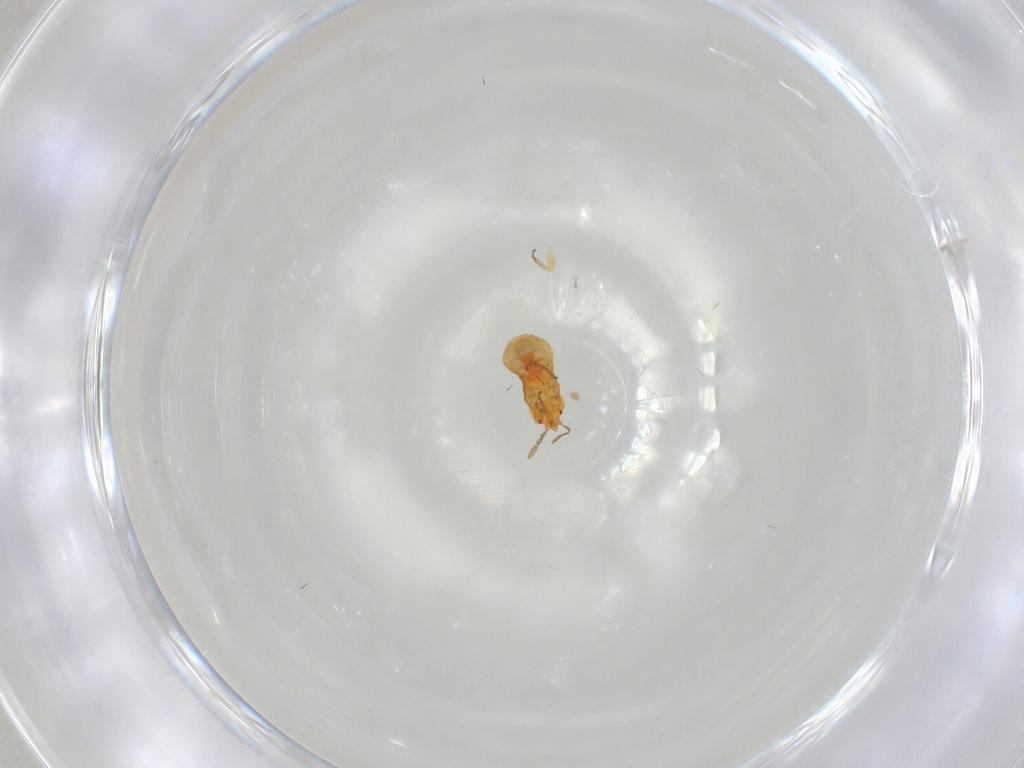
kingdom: Animalia
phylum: Arthropoda
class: Insecta
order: Hemiptera
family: Anthocoridae
